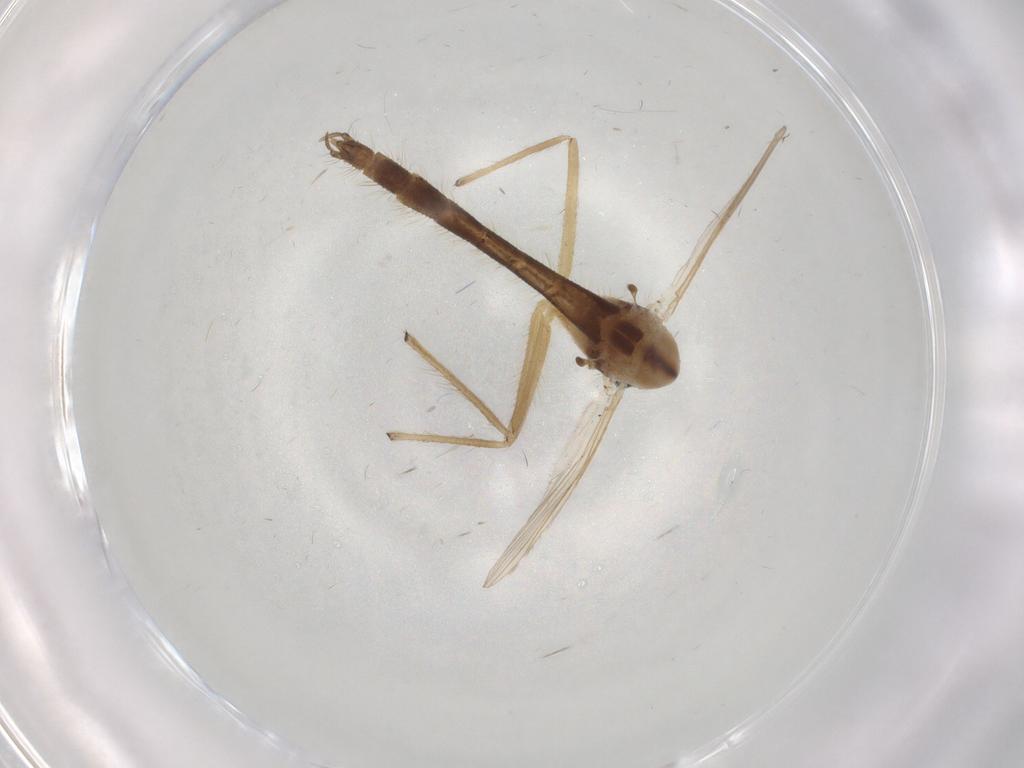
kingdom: Animalia
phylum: Arthropoda
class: Insecta
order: Diptera
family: Chironomidae
